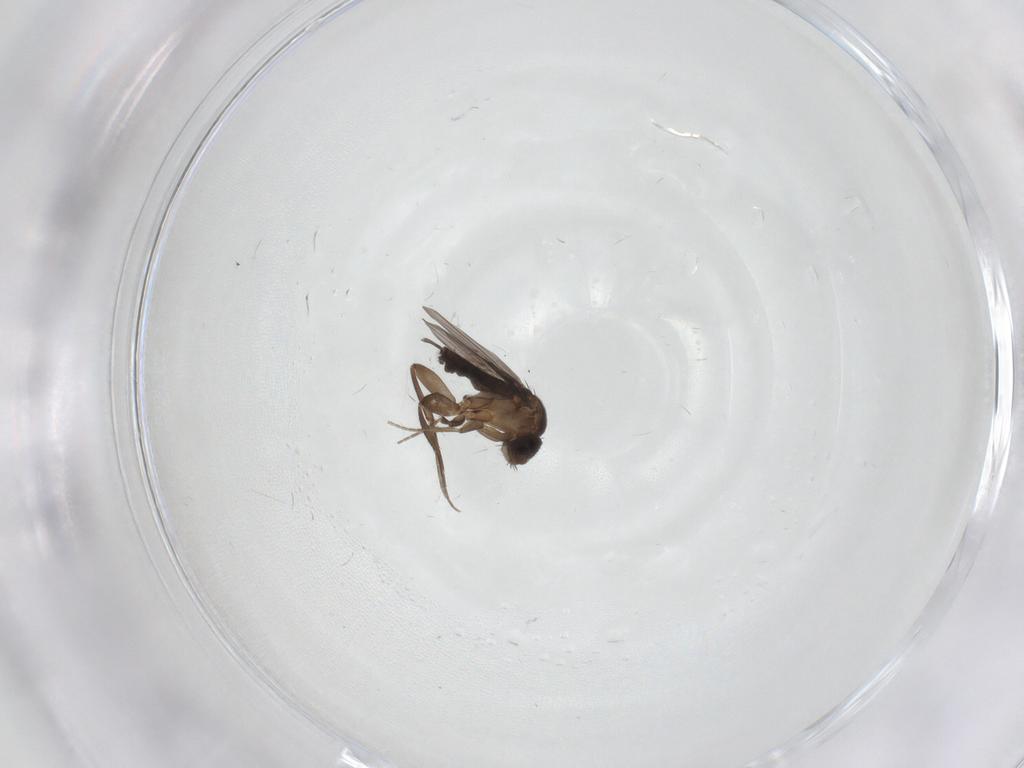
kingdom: Animalia
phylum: Arthropoda
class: Insecta
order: Diptera
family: Phoridae
